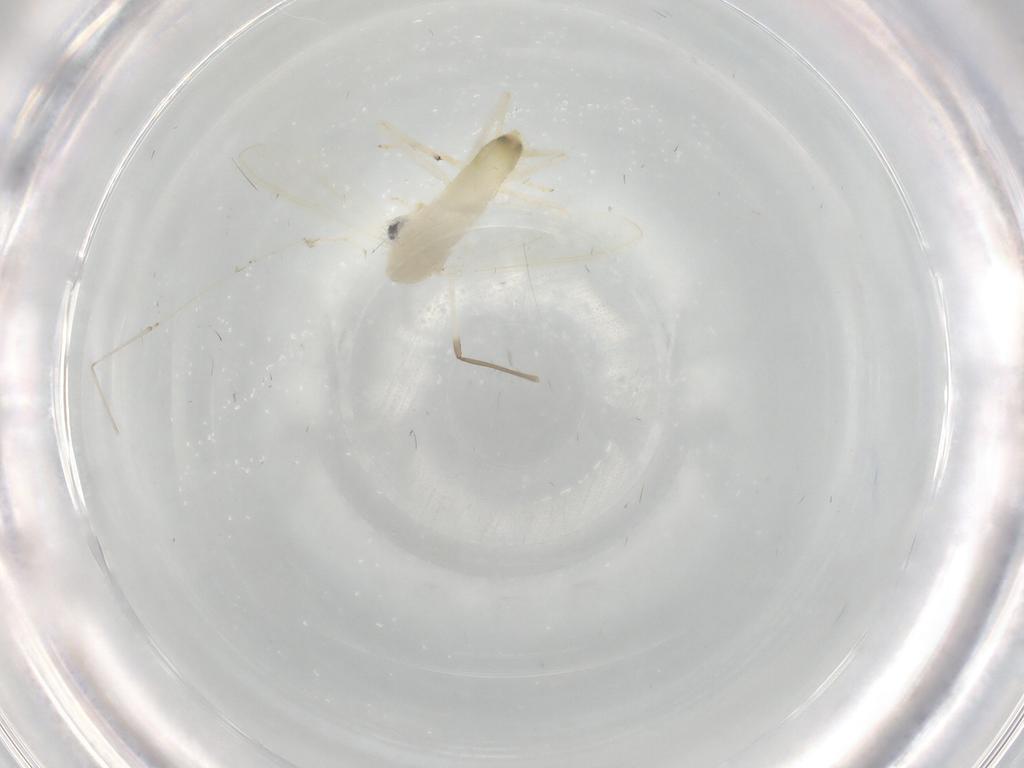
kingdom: Animalia
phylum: Arthropoda
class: Insecta
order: Diptera
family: Chironomidae
